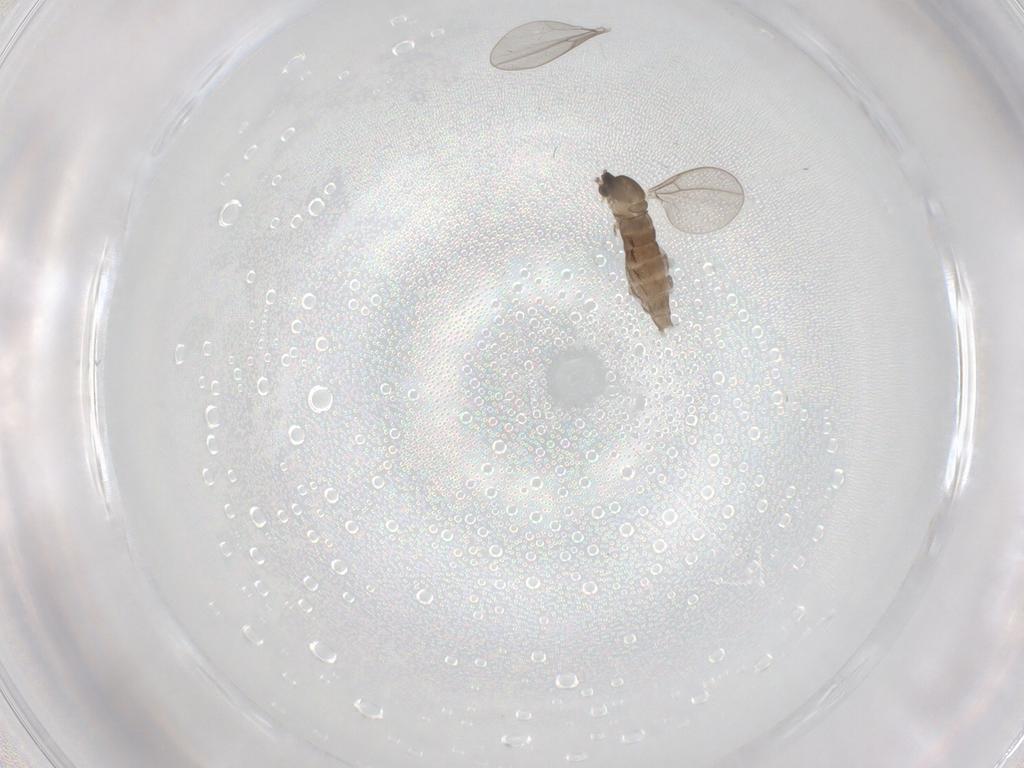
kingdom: Animalia
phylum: Arthropoda
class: Insecta
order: Diptera
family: Cecidomyiidae
